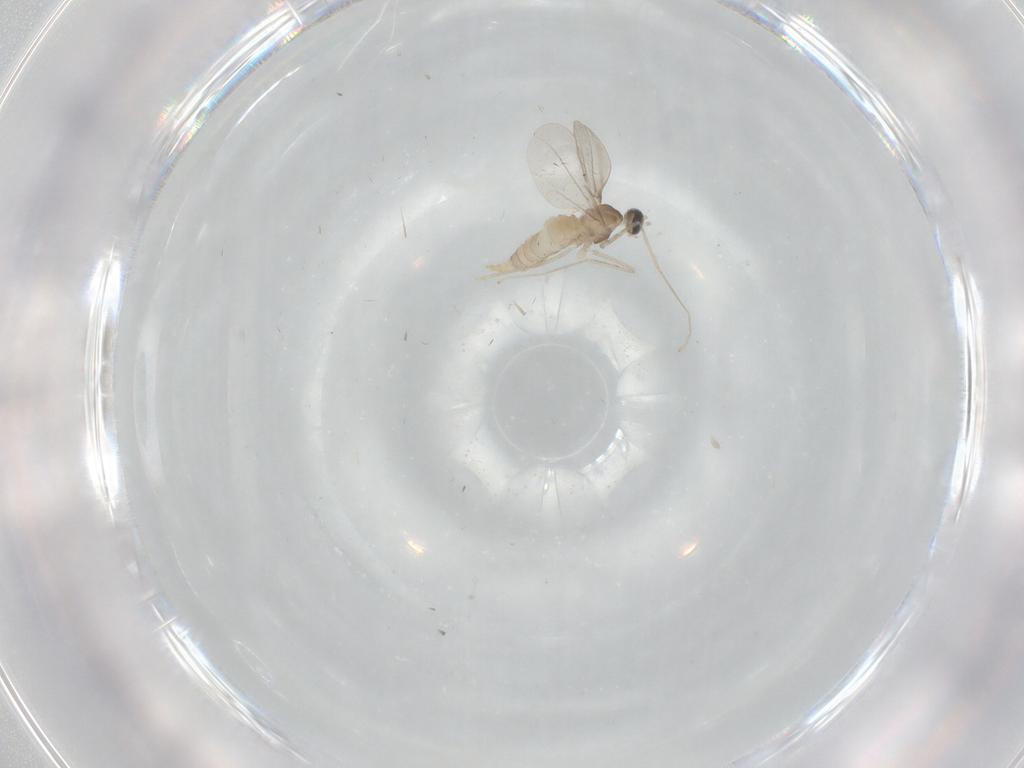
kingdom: Animalia
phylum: Arthropoda
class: Insecta
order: Diptera
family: Cecidomyiidae
